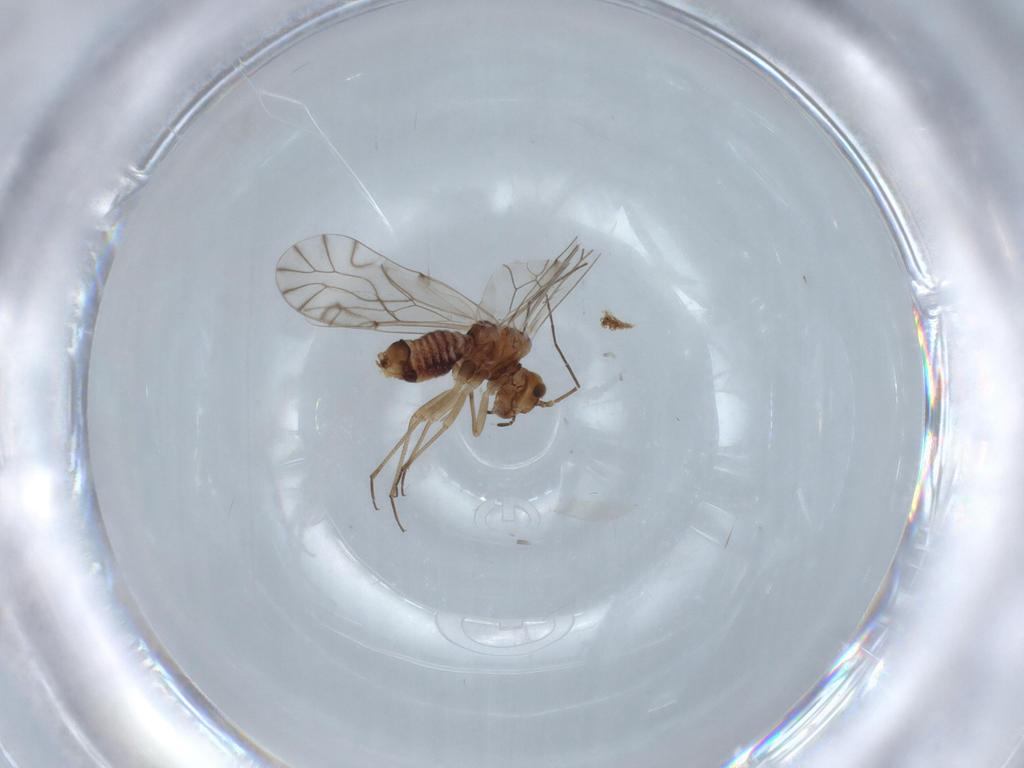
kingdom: Animalia
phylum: Arthropoda
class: Insecta
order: Psocodea
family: Lachesillidae
